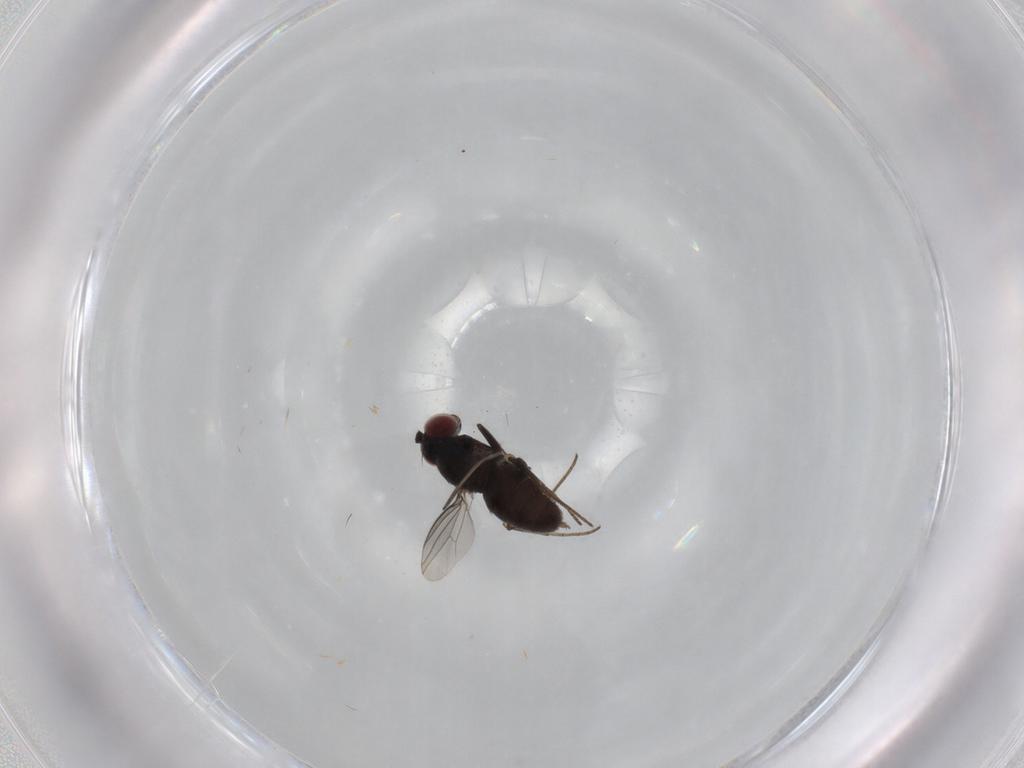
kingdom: Animalia
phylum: Arthropoda
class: Insecta
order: Diptera
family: Dolichopodidae
